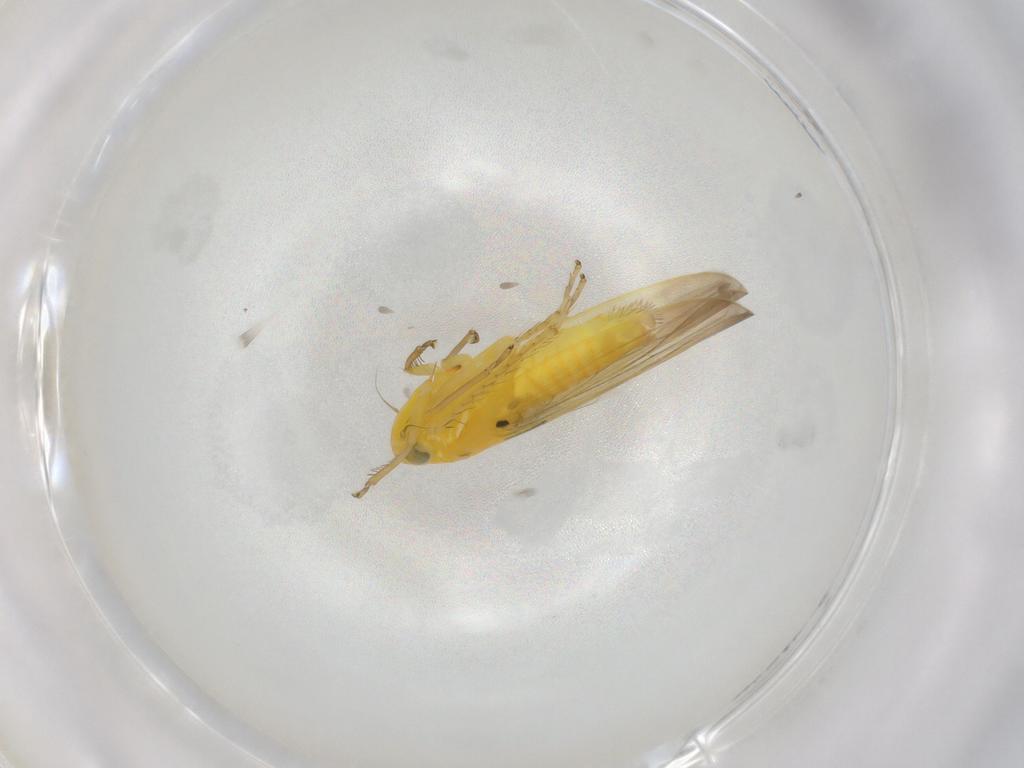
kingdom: Animalia
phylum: Arthropoda
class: Insecta
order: Hemiptera
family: Cicadellidae
